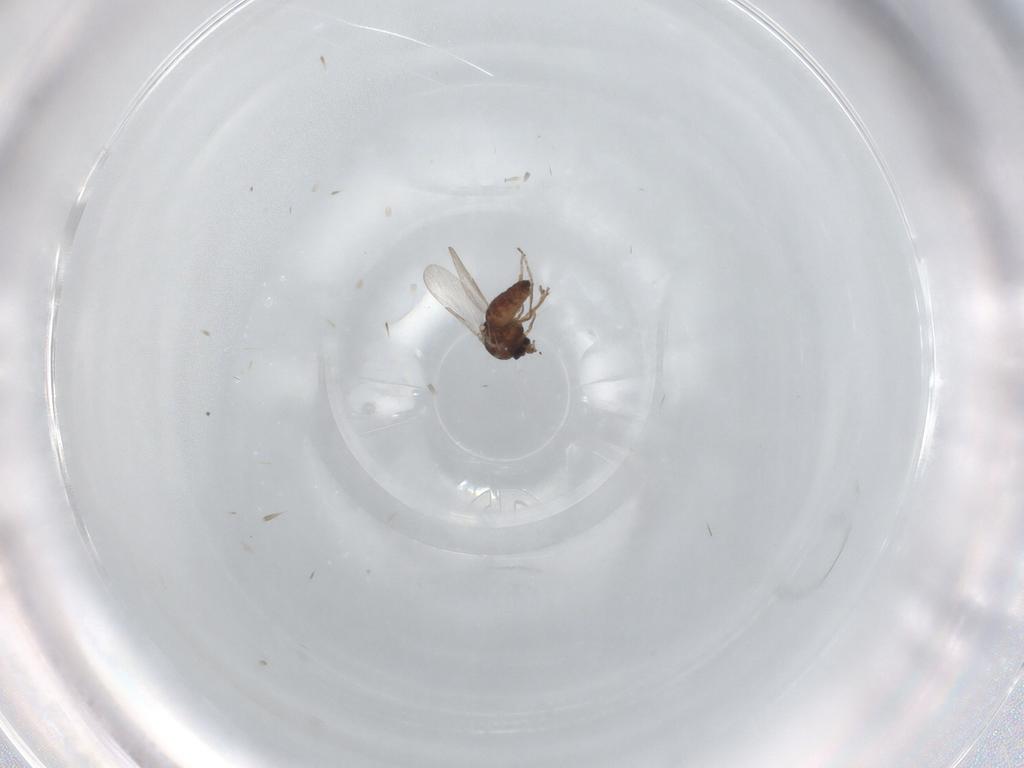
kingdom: Animalia
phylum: Arthropoda
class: Insecta
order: Diptera
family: Ceratopogonidae
